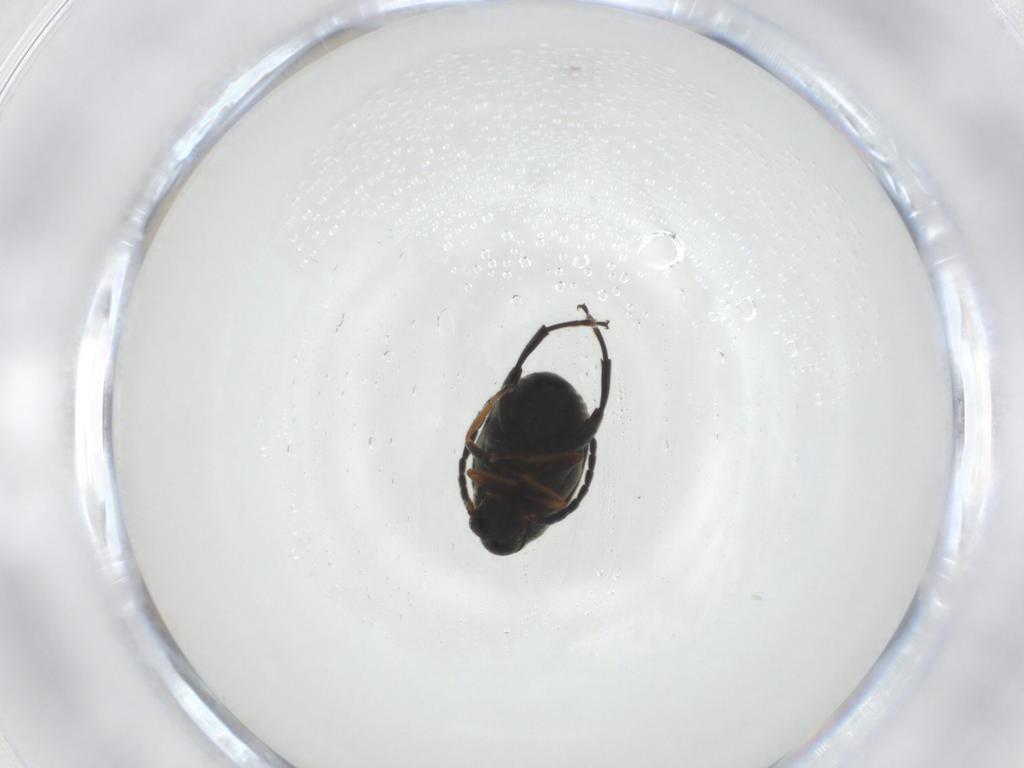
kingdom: Animalia
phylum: Arthropoda
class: Insecta
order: Coleoptera
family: Chrysomelidae
